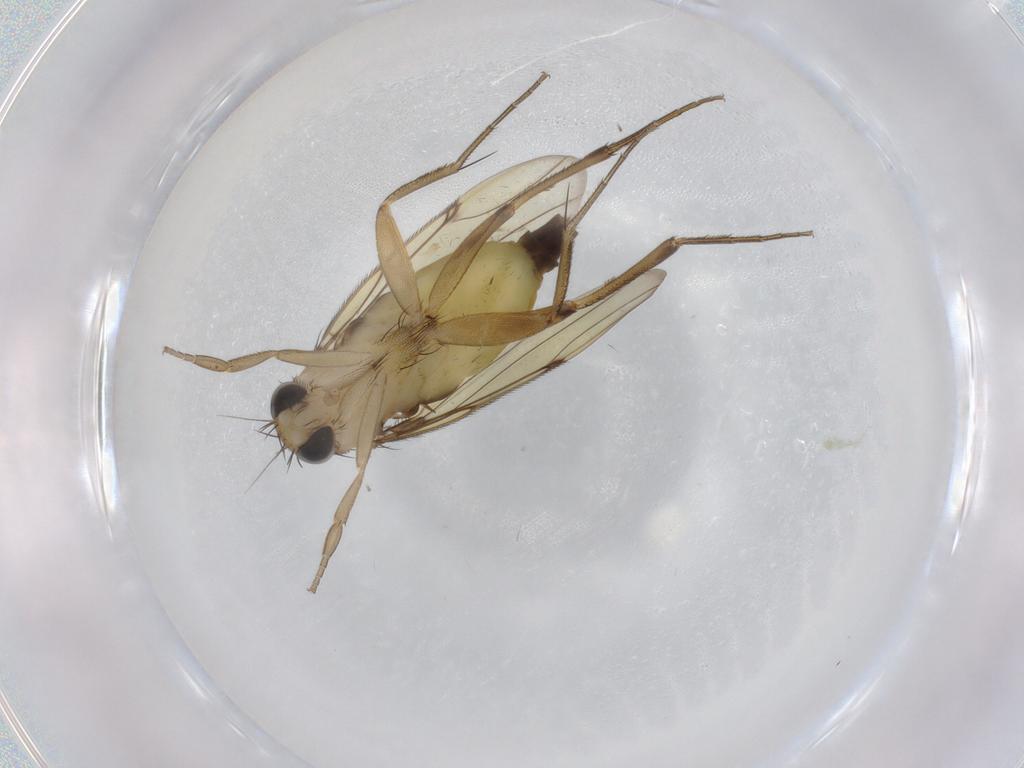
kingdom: Animalia
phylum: Arthropoda
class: Insecta
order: Diptera
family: Phoridae
